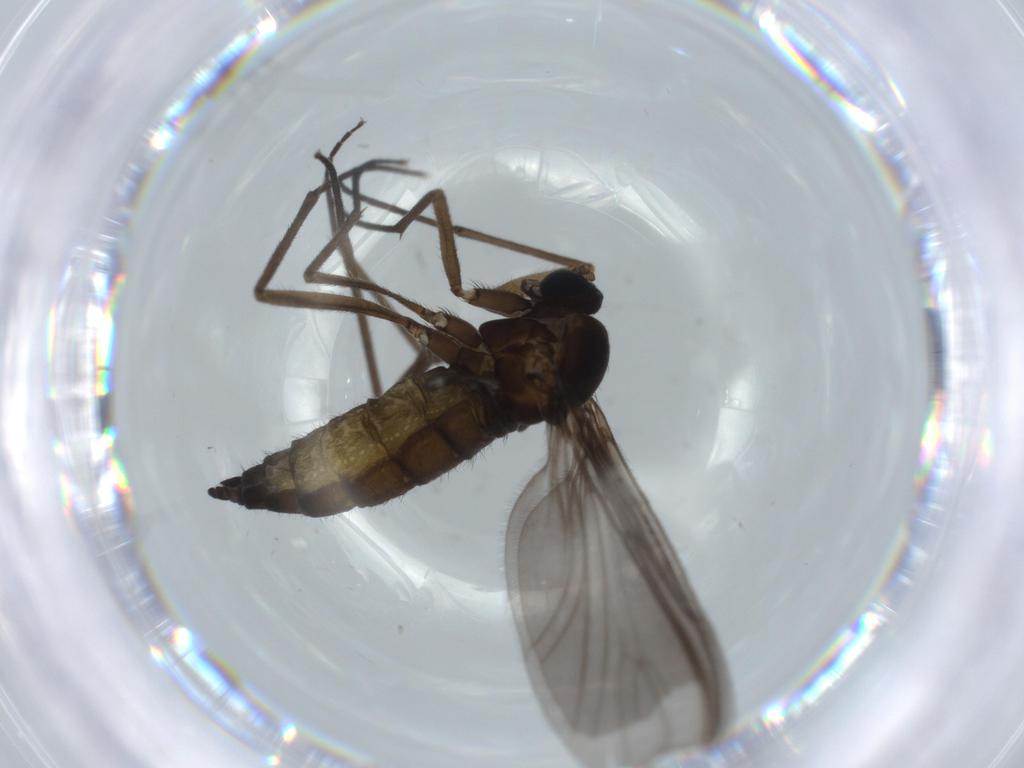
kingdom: Animalia
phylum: Arthropoda
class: Insecta
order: Diptera
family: Sciaridae
